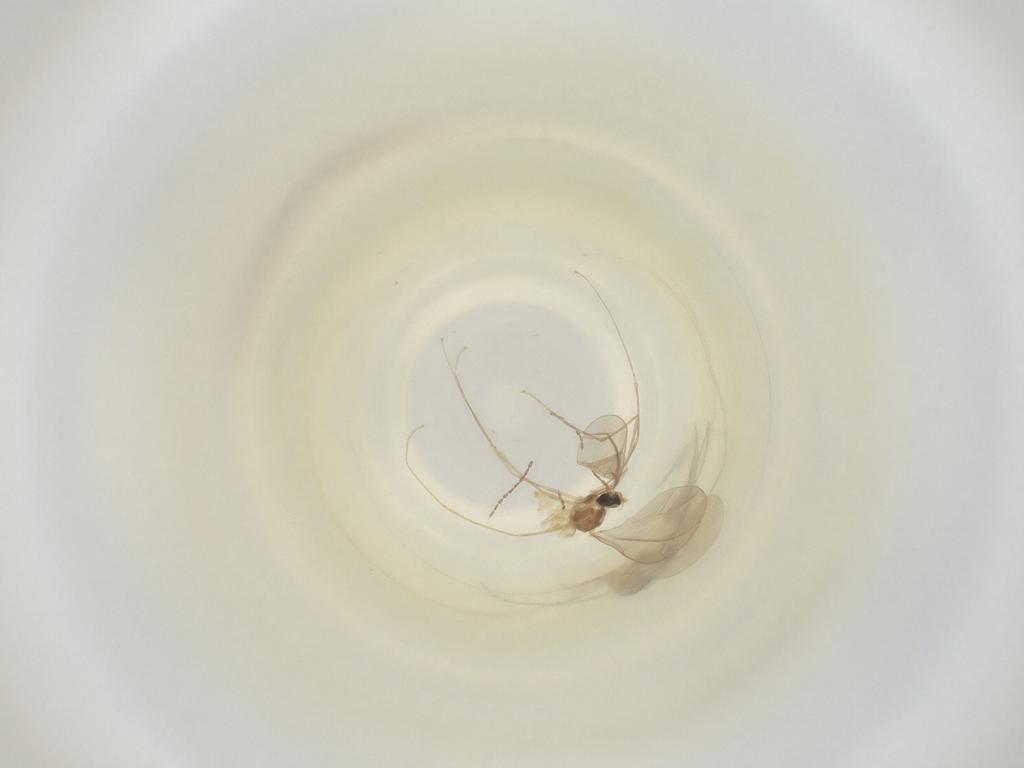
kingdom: Animalia
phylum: Arthropoda
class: Insecta
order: Diptera
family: Cecidomyiidae
